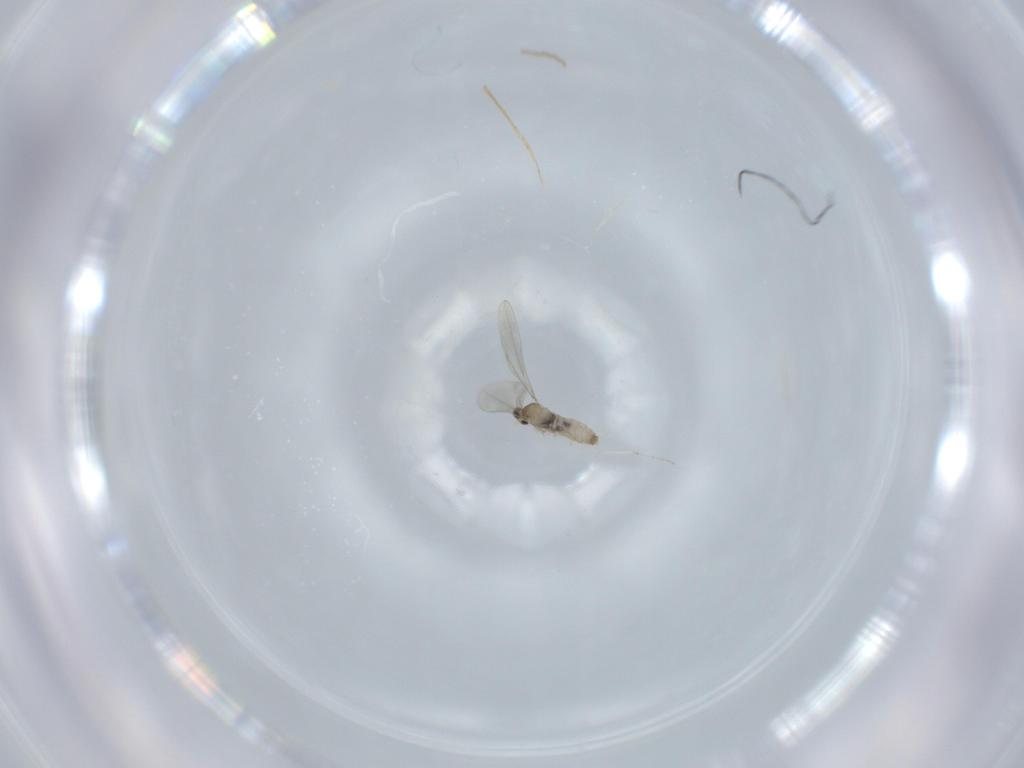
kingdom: Animalia
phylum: Arthropoda
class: Insecta
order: Diptera
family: Cecidomyiidae
